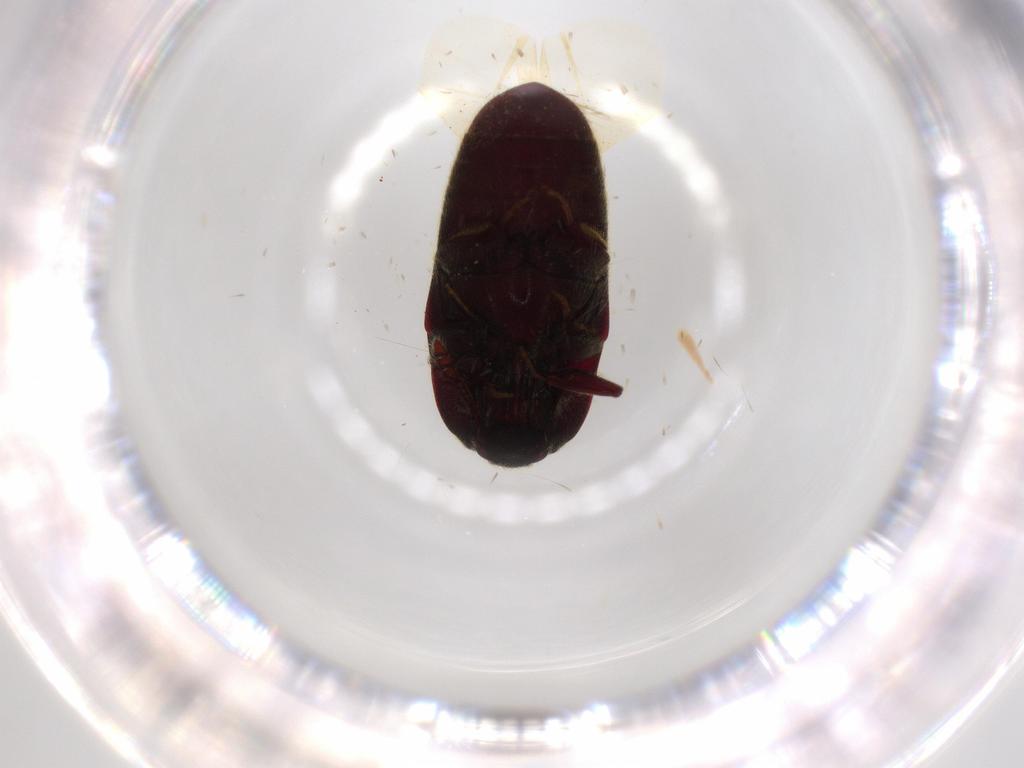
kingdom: Animalia
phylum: Arthropoda
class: Insecta
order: Coleoptera
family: Throscidae
